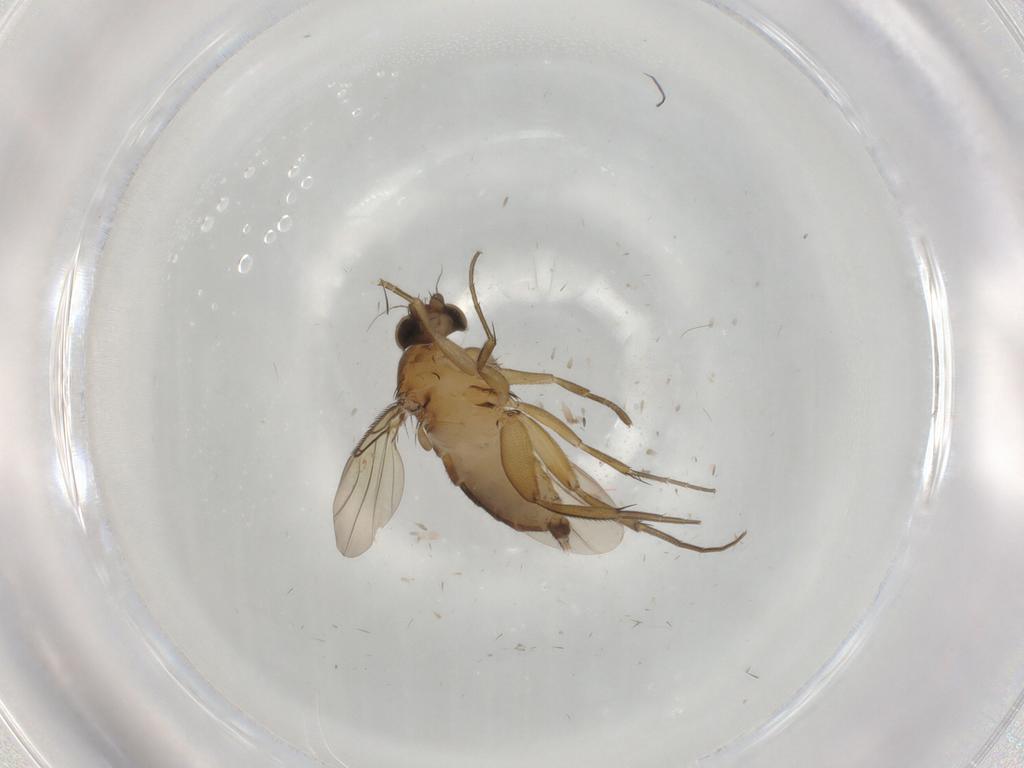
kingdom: Animalia
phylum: Arthropoda
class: Insecta
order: Diptera
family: Phoridae
